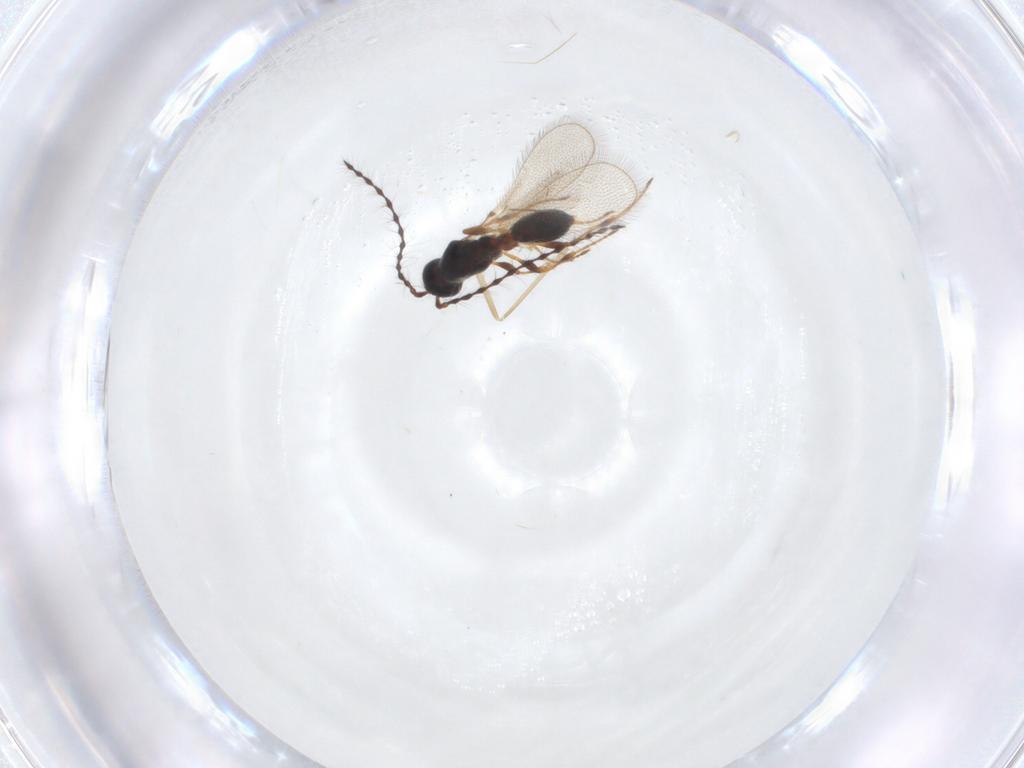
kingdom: Animalia
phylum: Arthropoda
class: Insecta
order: Hymenoptera
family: Diapriidae
